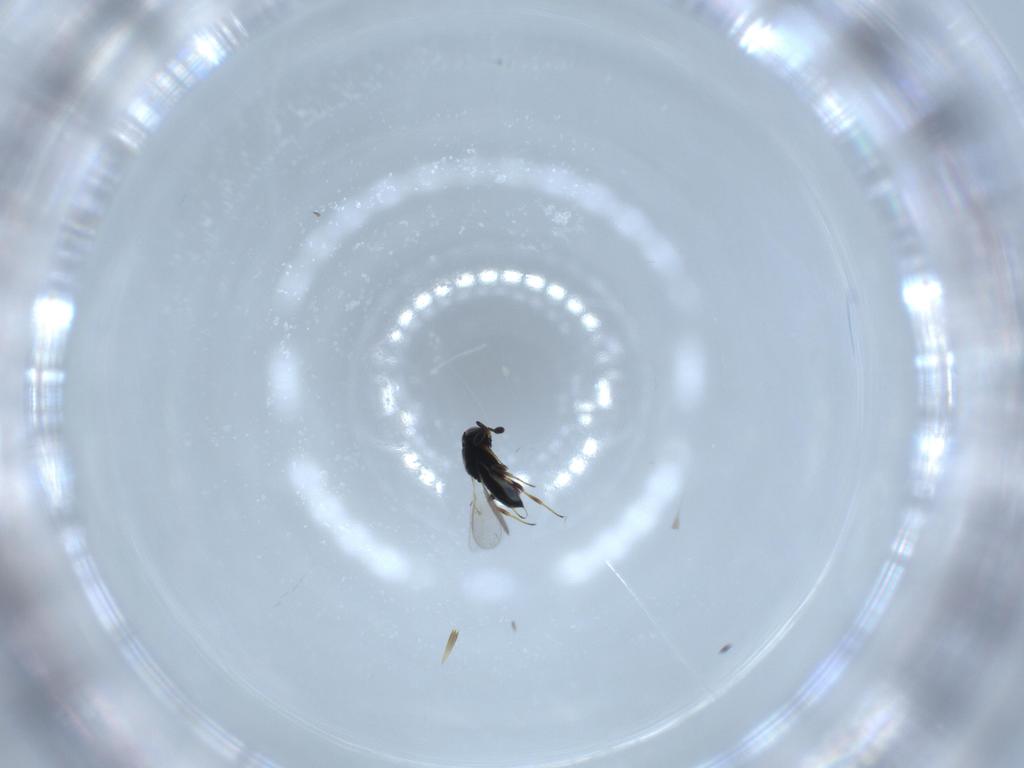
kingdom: Animalia
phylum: Arthropoda
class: Insecta
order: Hymenoptera
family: Scelionidae
